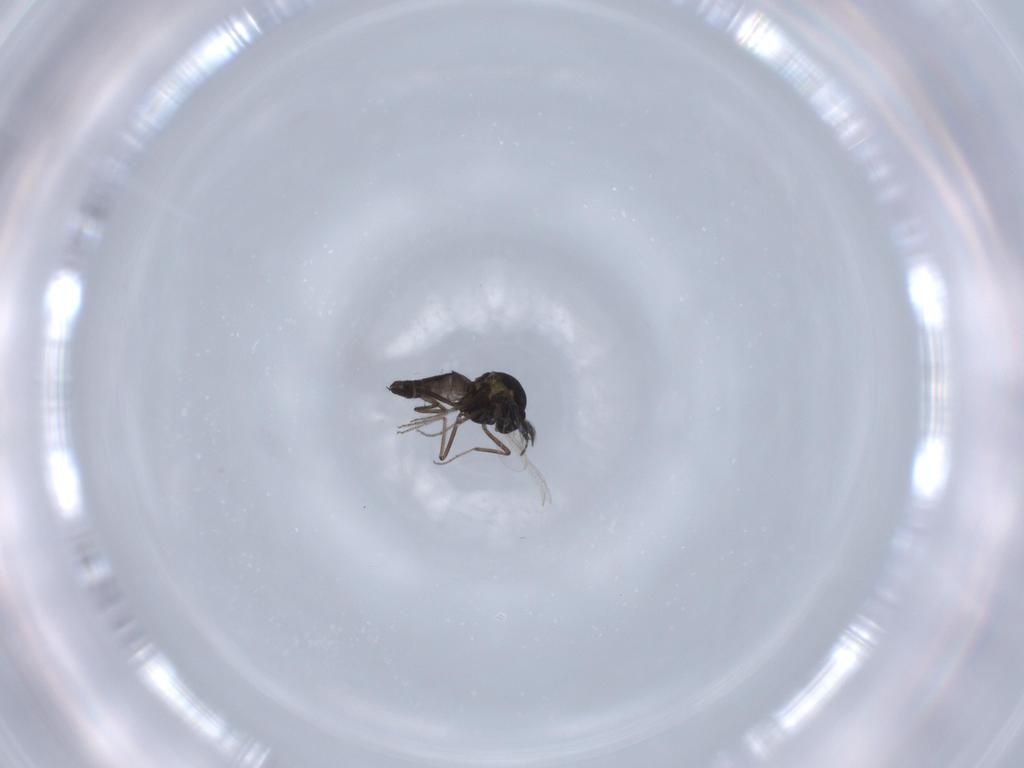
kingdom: Animalia
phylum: Arthropoda
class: Insecta
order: Diptera
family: Ceratopogonidae
